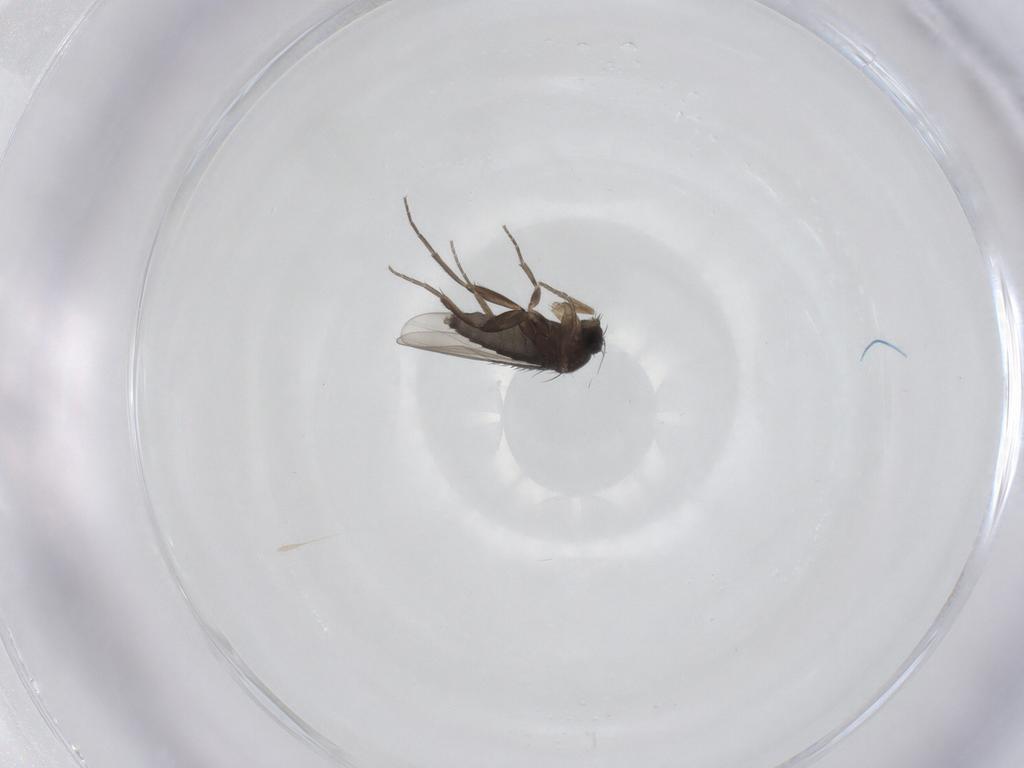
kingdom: Animalia
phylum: Arthropoda
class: Insecta
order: Diptera
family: Phoridae
